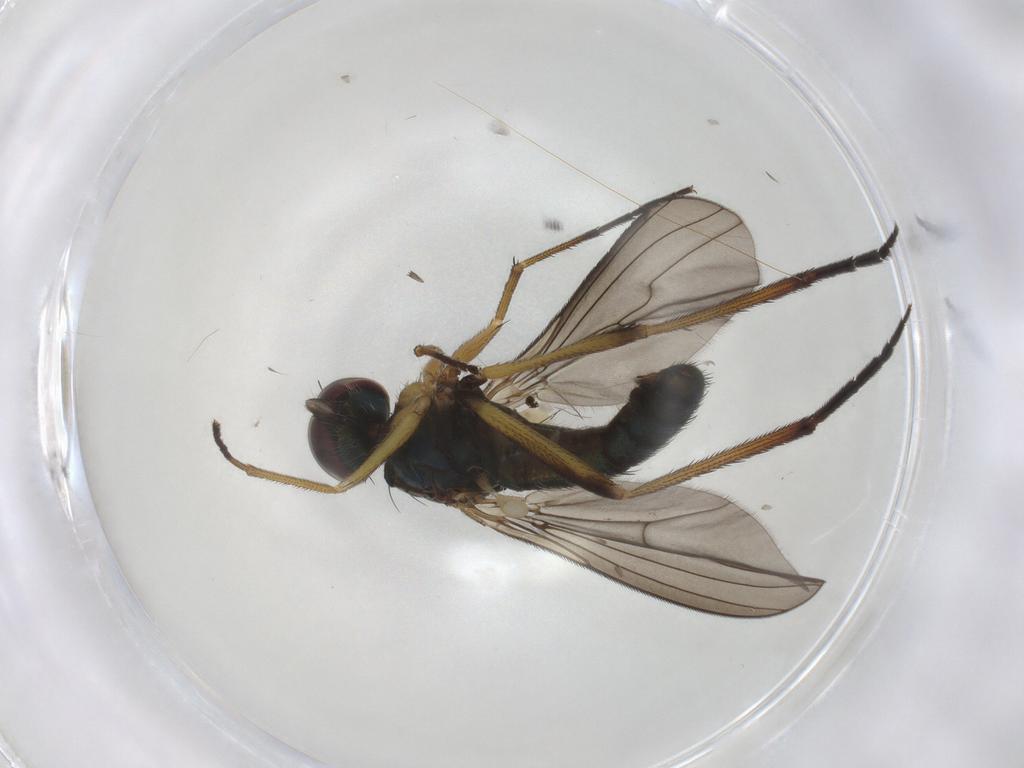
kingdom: Animalia
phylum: Arthropoda
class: Insecta
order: Diptera
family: Dolichopodidae
